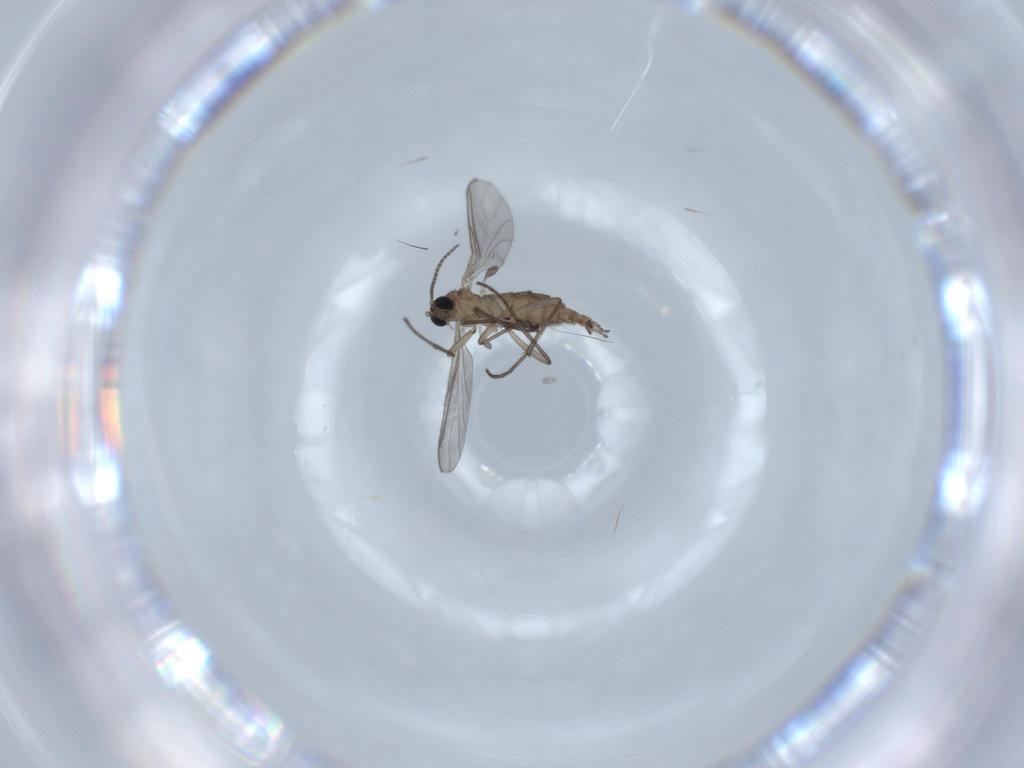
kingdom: Animalia
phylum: Arthropoda
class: Insecta
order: Diptera
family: Sciaridae
